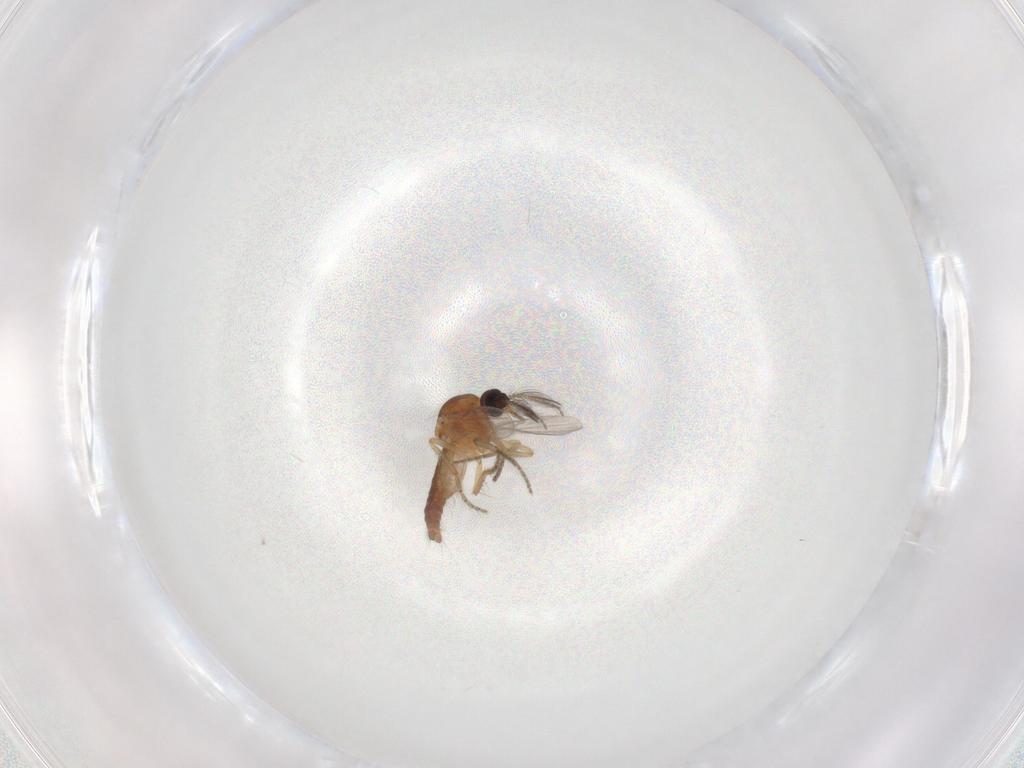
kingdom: Animalia
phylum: Arthropoda
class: Insecta
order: Diptera
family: Ceratopogonidae
